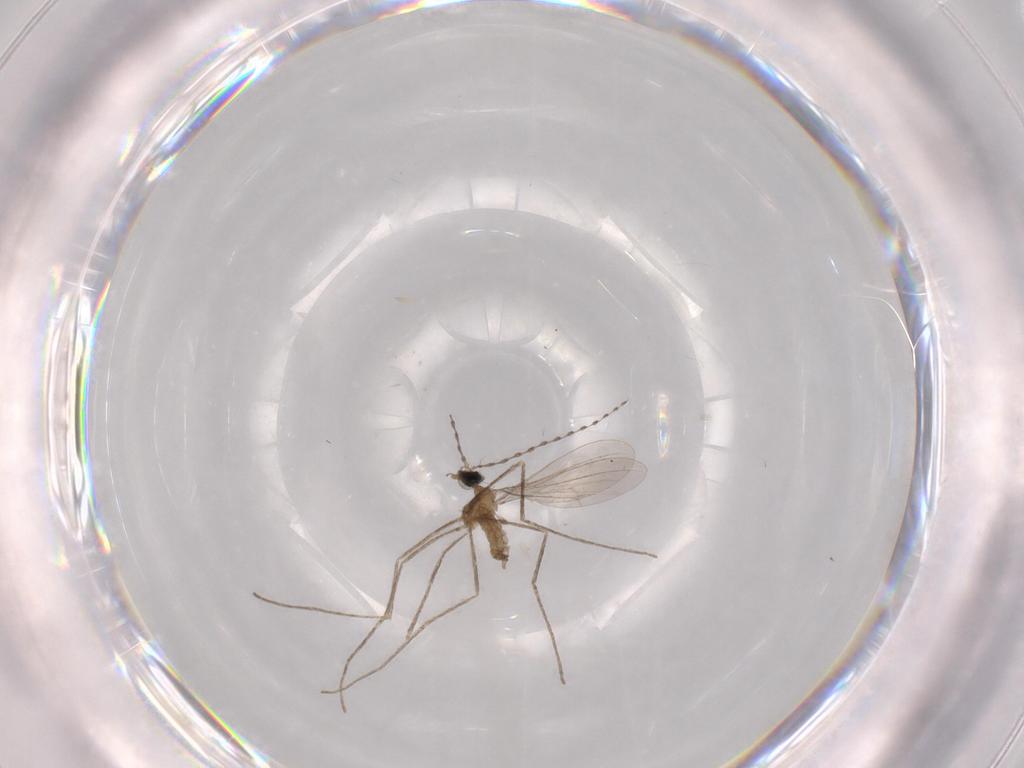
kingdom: Animalia
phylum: Arthropoda
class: Insecta
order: Diptera
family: Cecidomyiidae
